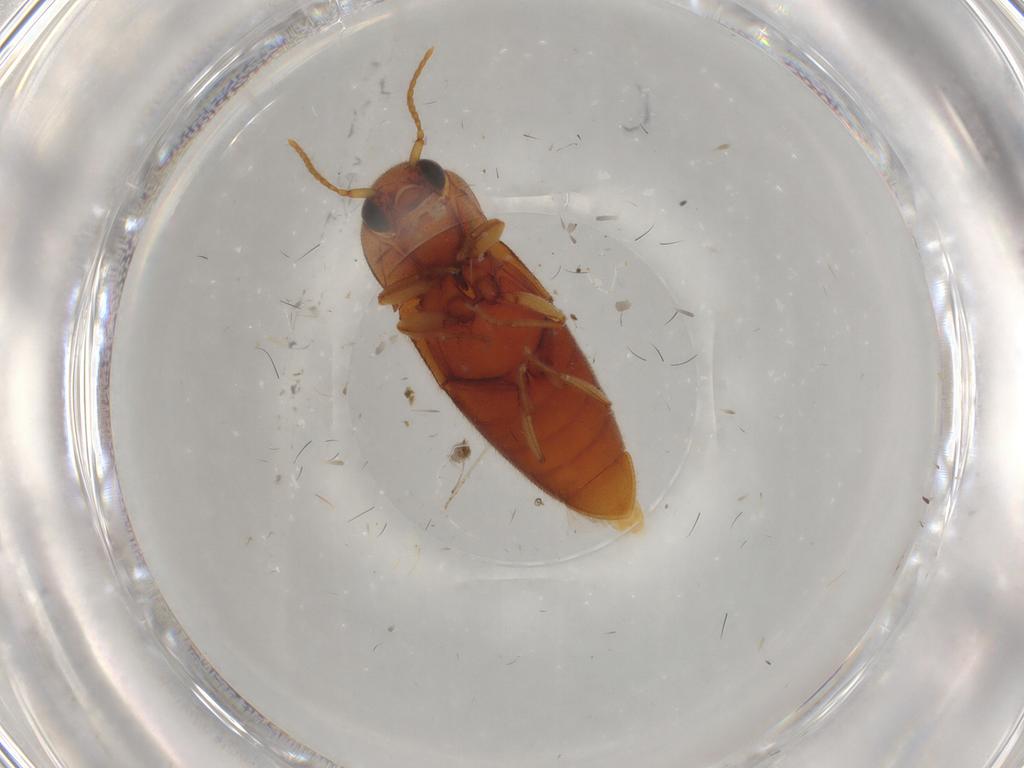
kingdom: Animalia
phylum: Arthropoda
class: Insecta
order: Coleoptera
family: Elateridae
